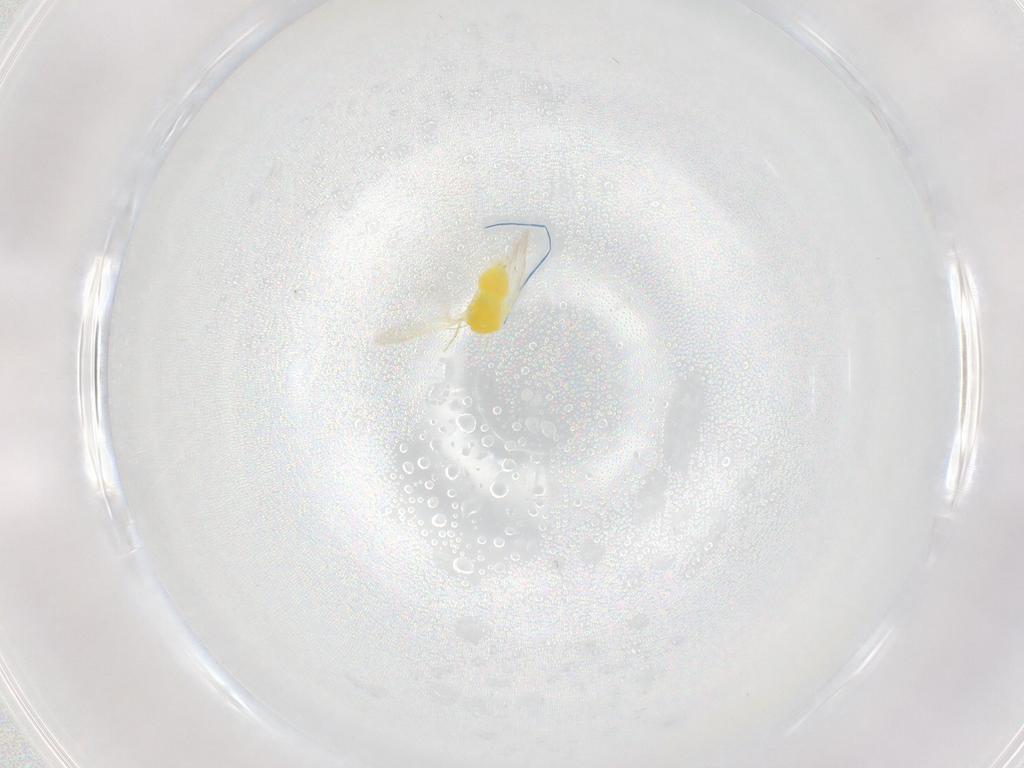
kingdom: Animalia
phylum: Arthropoda
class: Insecta
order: Hemiptera
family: Aleyrodidae
